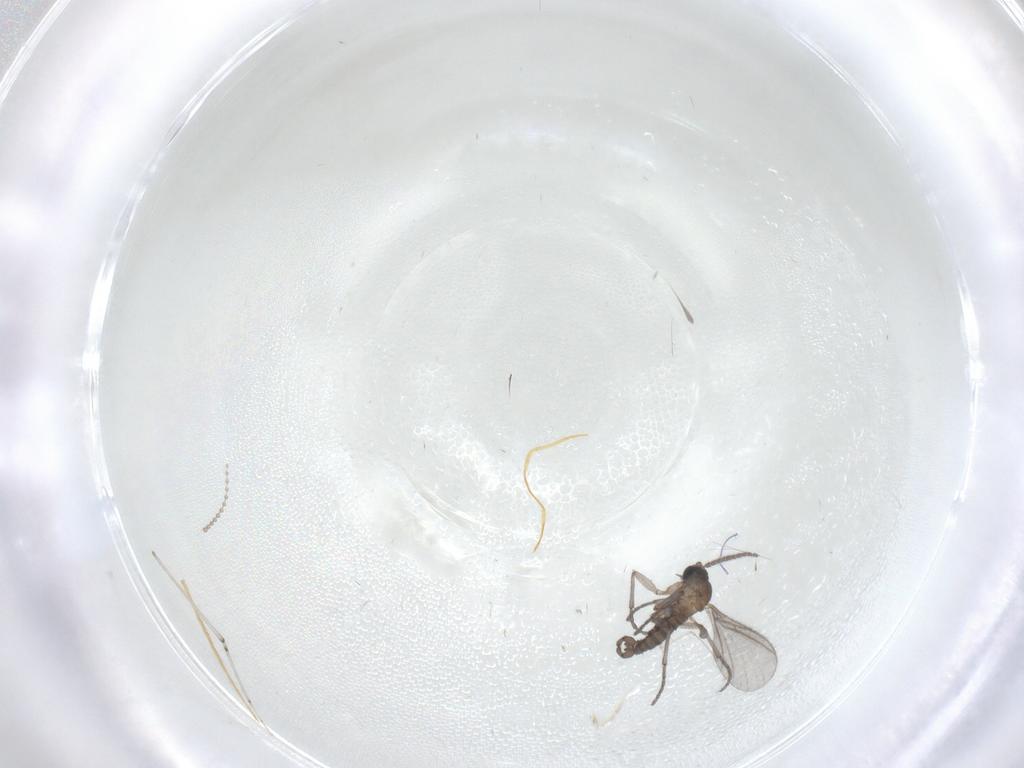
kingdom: Animalia
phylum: Arthropoda
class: Insecta
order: Diptera
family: Sciaridae
